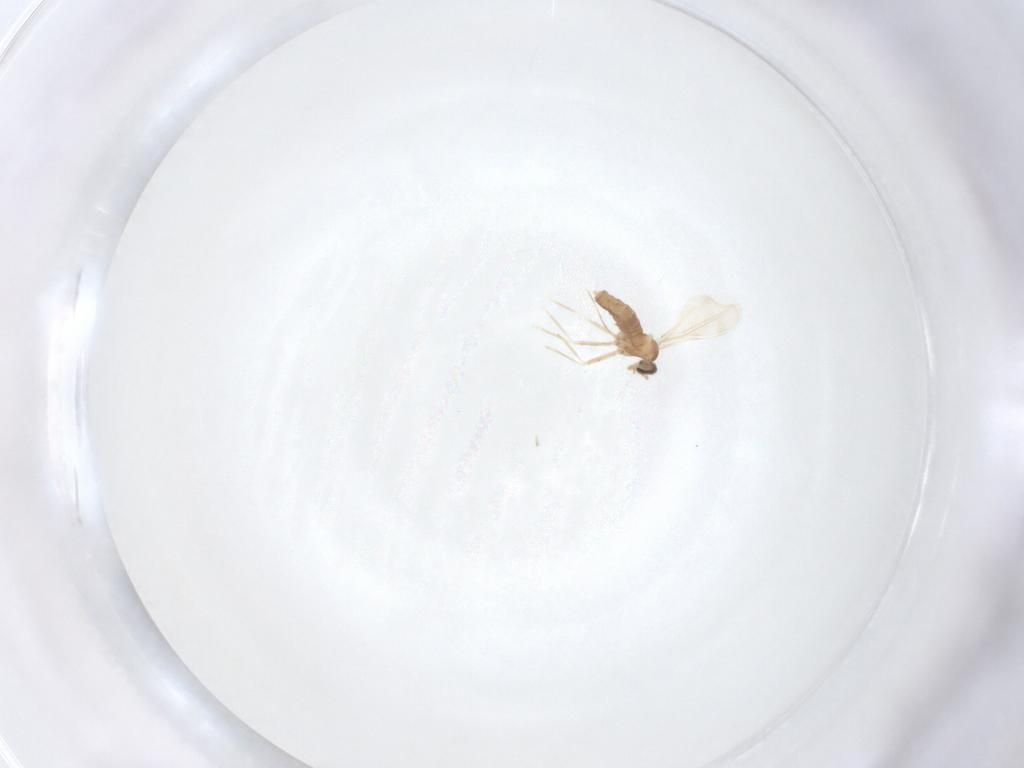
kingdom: Animalia
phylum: Arthropoda
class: Insecta
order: Diptera
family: Cecidomyiidae
